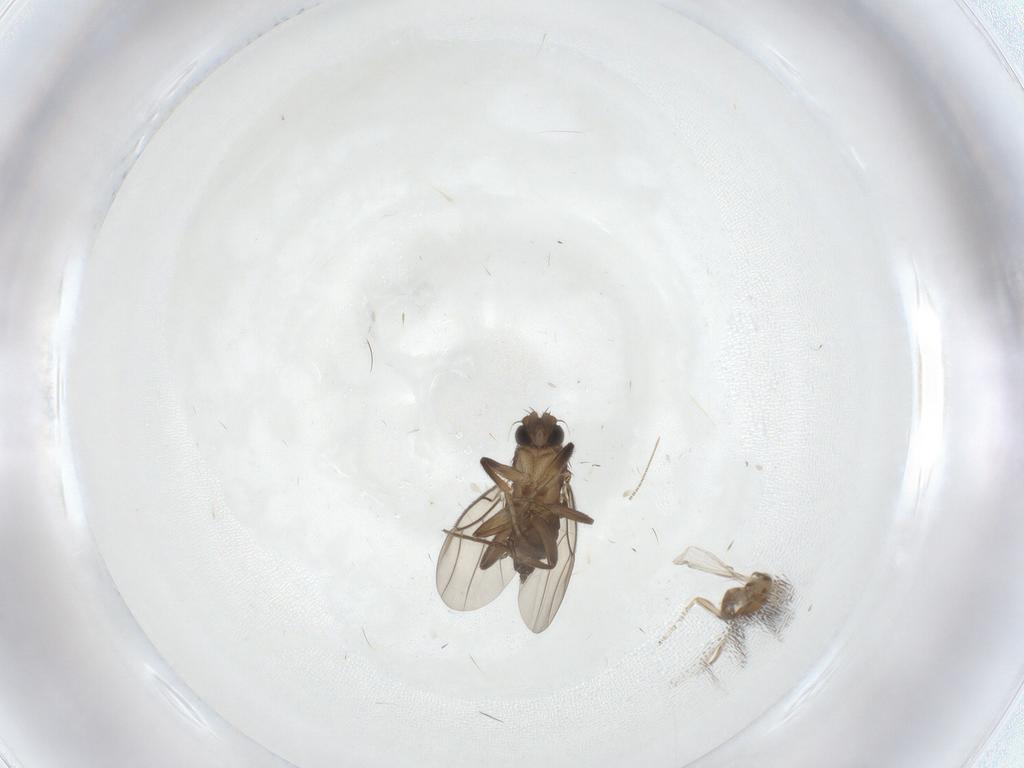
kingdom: Animalia
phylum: Arthropoda
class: Insecta
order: Diptera
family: Phoridae
